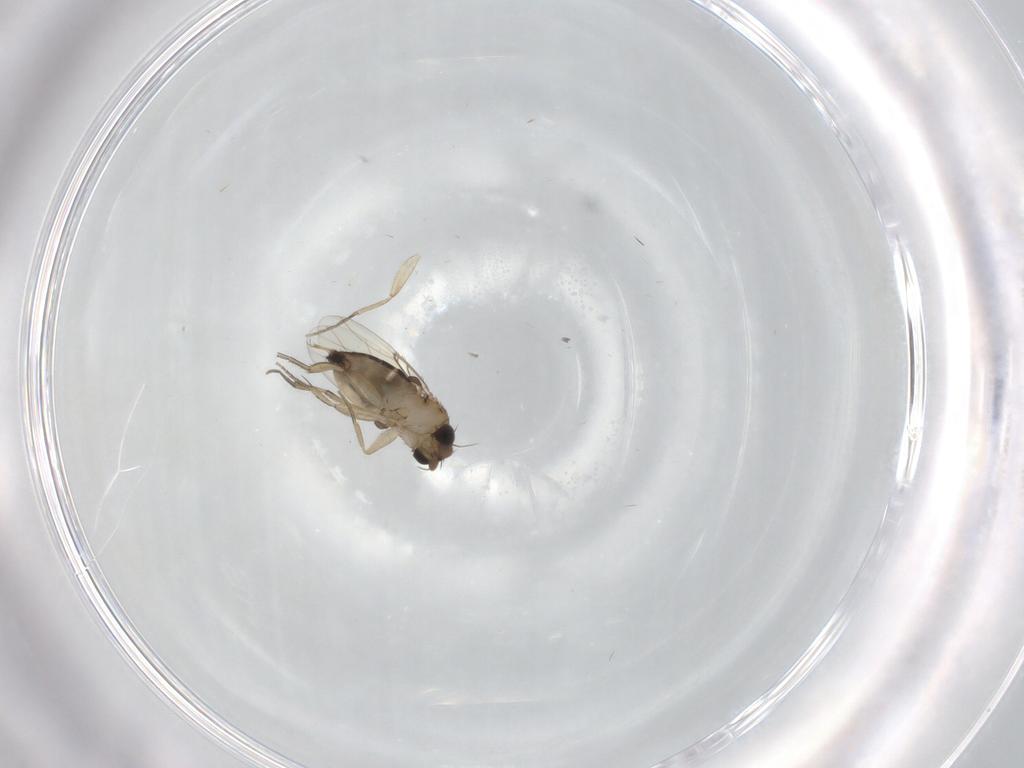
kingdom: Animalia
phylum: Arthropoda
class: Insecta
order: Diptera
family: Phoridae
